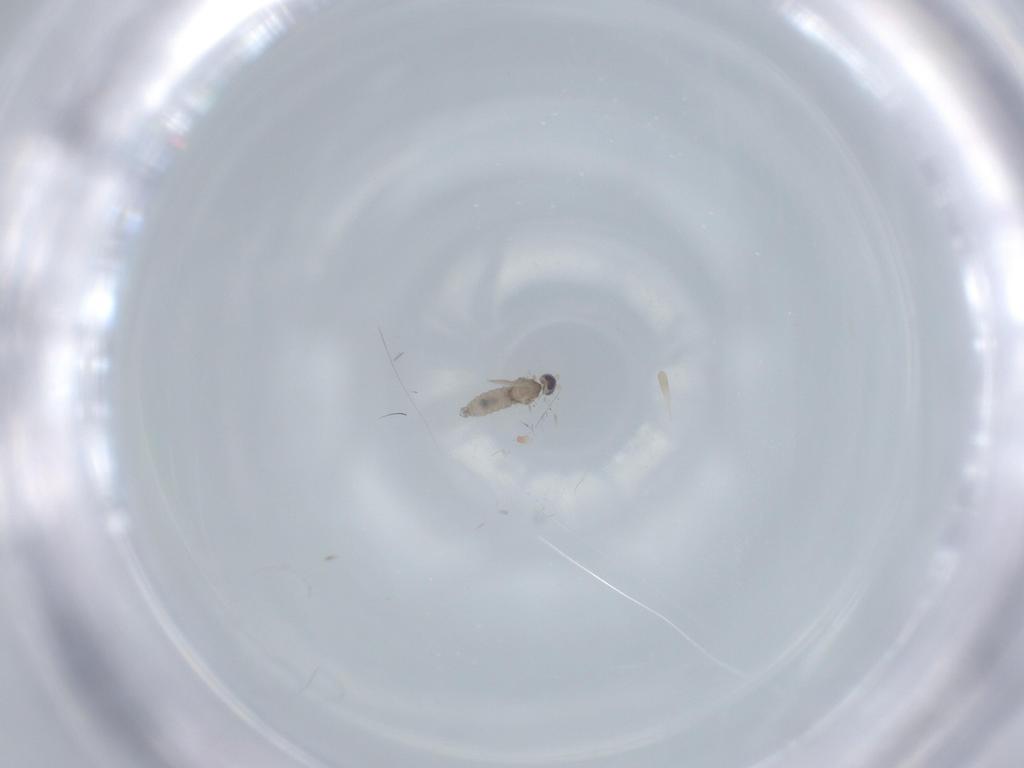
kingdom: Animalia
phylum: Arthropoda
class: Insecta
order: Diptera
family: Cecidomyiidae
